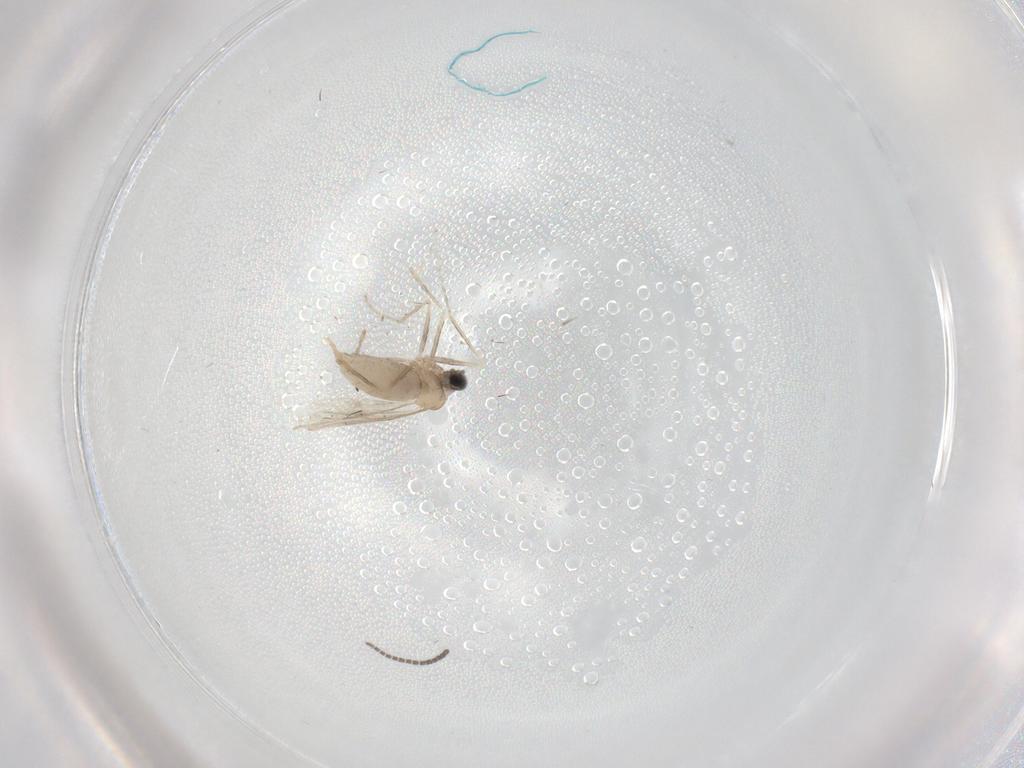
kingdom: Animalia
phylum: Arthropoda
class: Insecta
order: Diptera
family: Sciaridae
